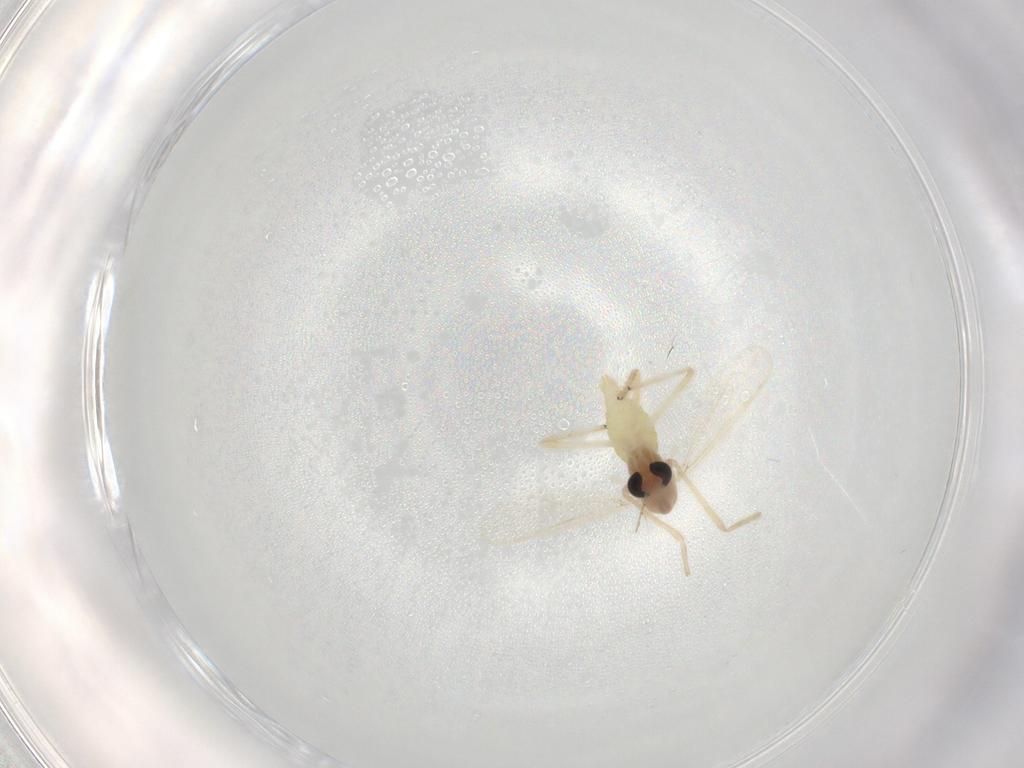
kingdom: Animalia
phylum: Arthropoda
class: Insecta
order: Diptera
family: Chironomidae
